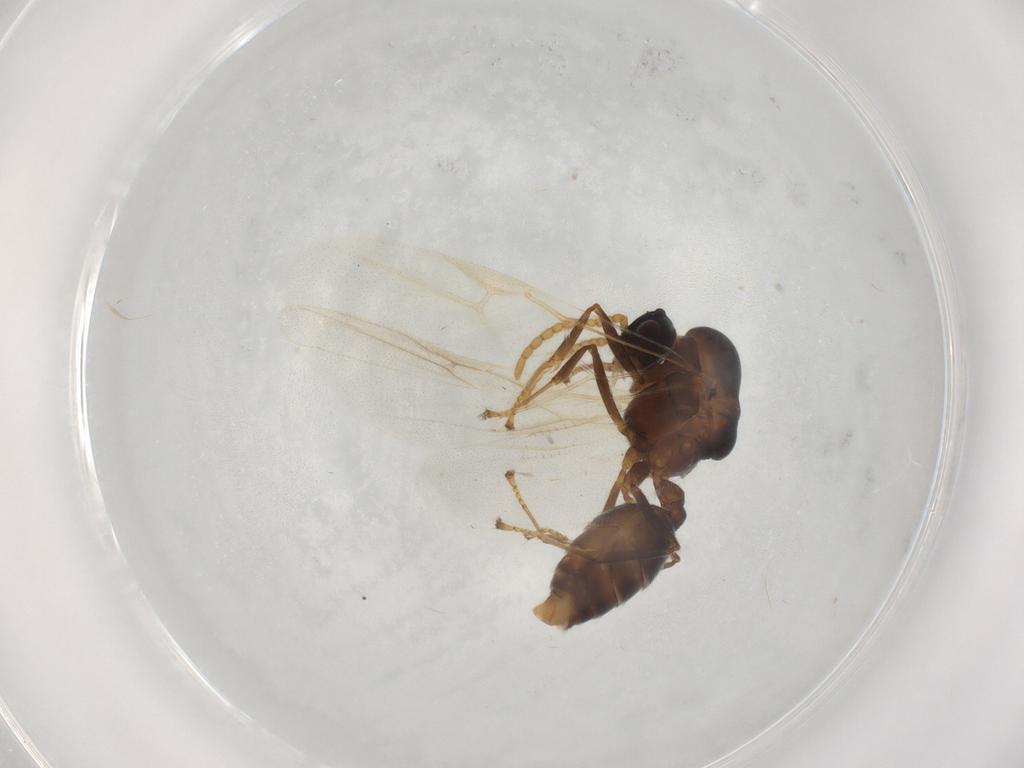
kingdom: Animalia
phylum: Arthropoda
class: Insecta
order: Hymenoptera
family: Formicidae
